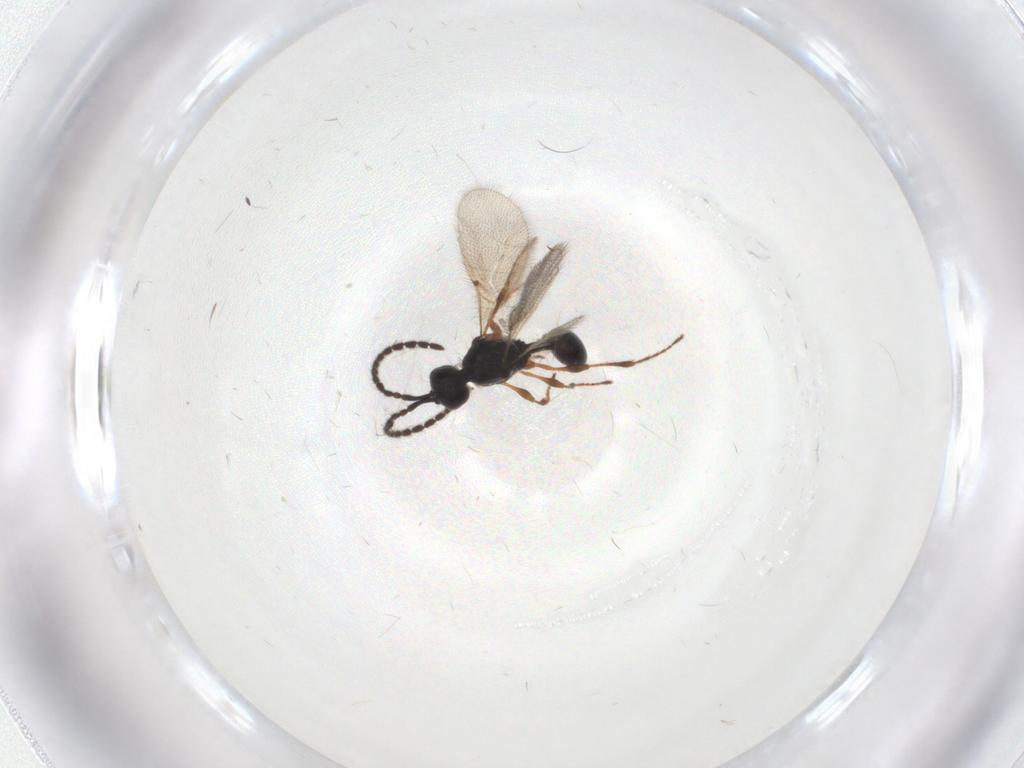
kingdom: Animalia
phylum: Arthropoda
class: Insecta
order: Hymenoptera
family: Diapriidae
